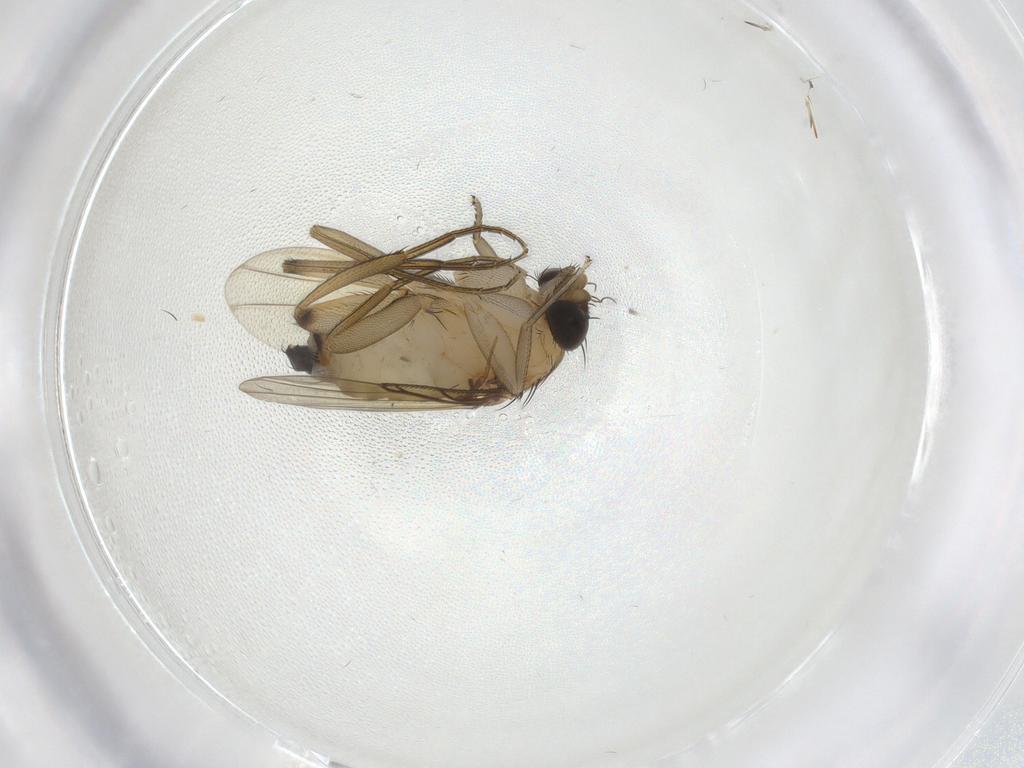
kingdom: Animalia
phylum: Arthropoda
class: Insecta
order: Diptera
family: Phoridae
